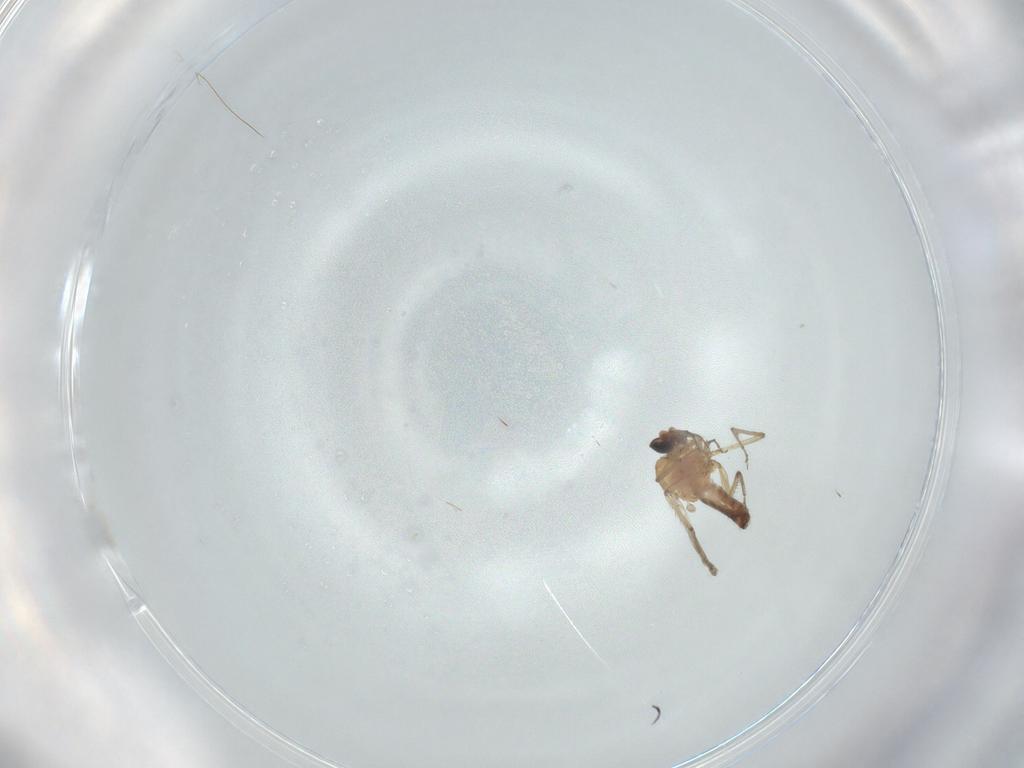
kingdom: Animalia
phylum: Arthropoda
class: Insecta
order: Diptera
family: Ceratopogonidae
